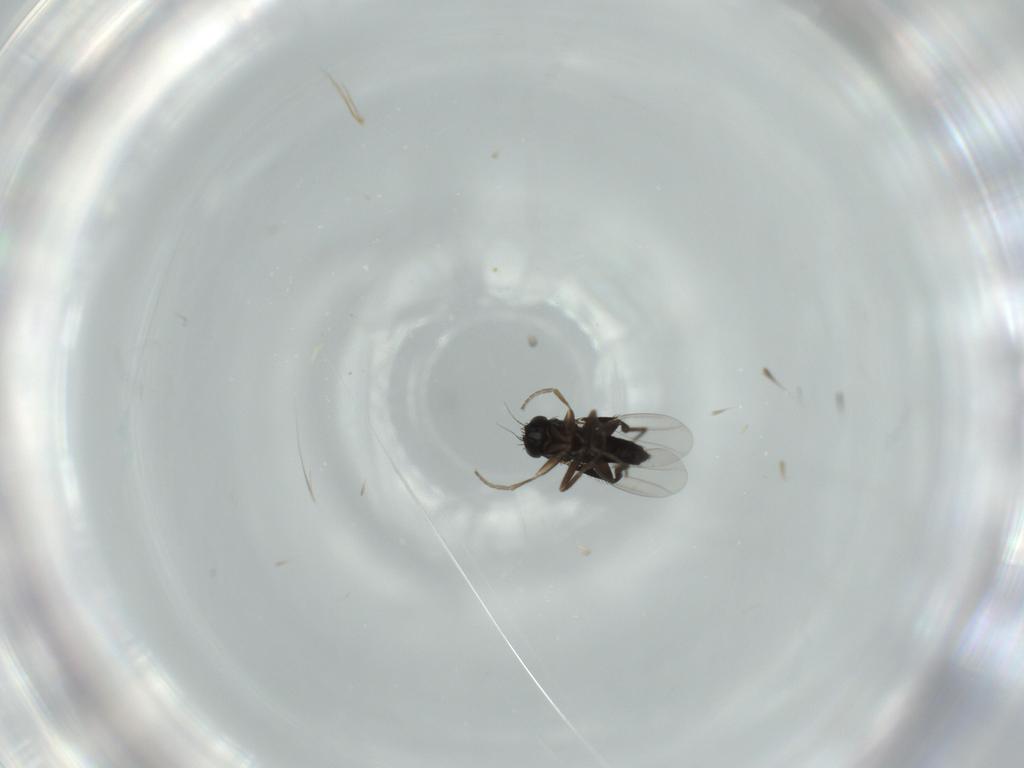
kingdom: Animalia
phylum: Arthropoda
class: Insecta
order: Diptera
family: Phoridae
